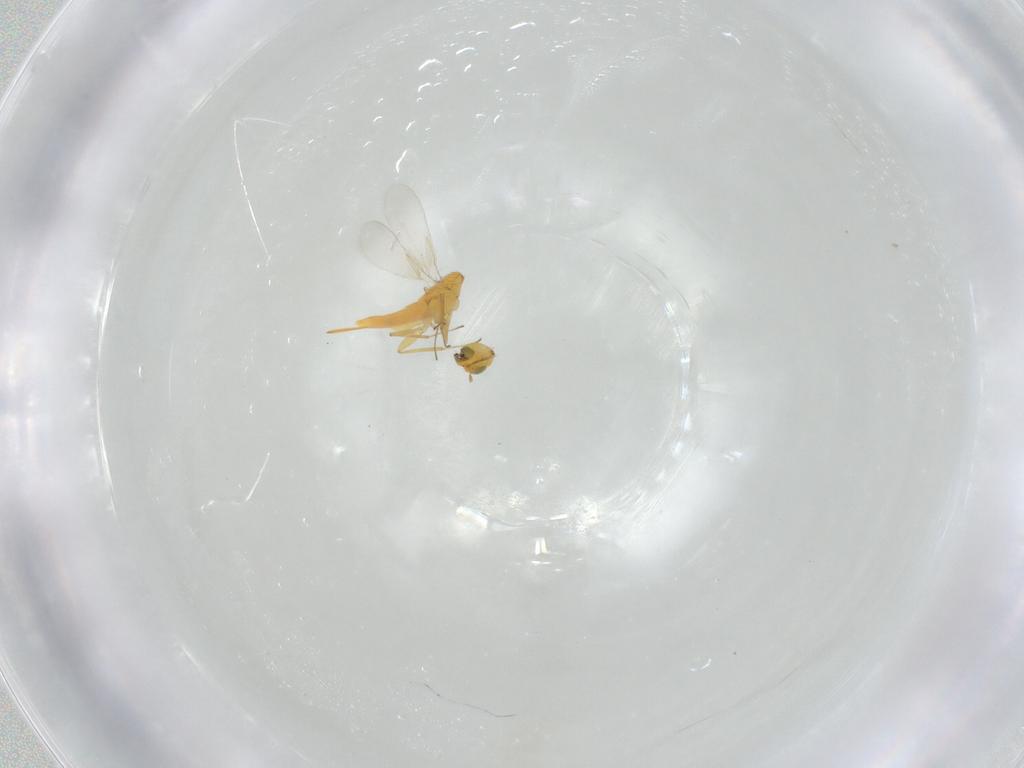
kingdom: Animalia
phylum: Arthropoda
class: Insecta
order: Hymenoptera
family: Aphelinidae
